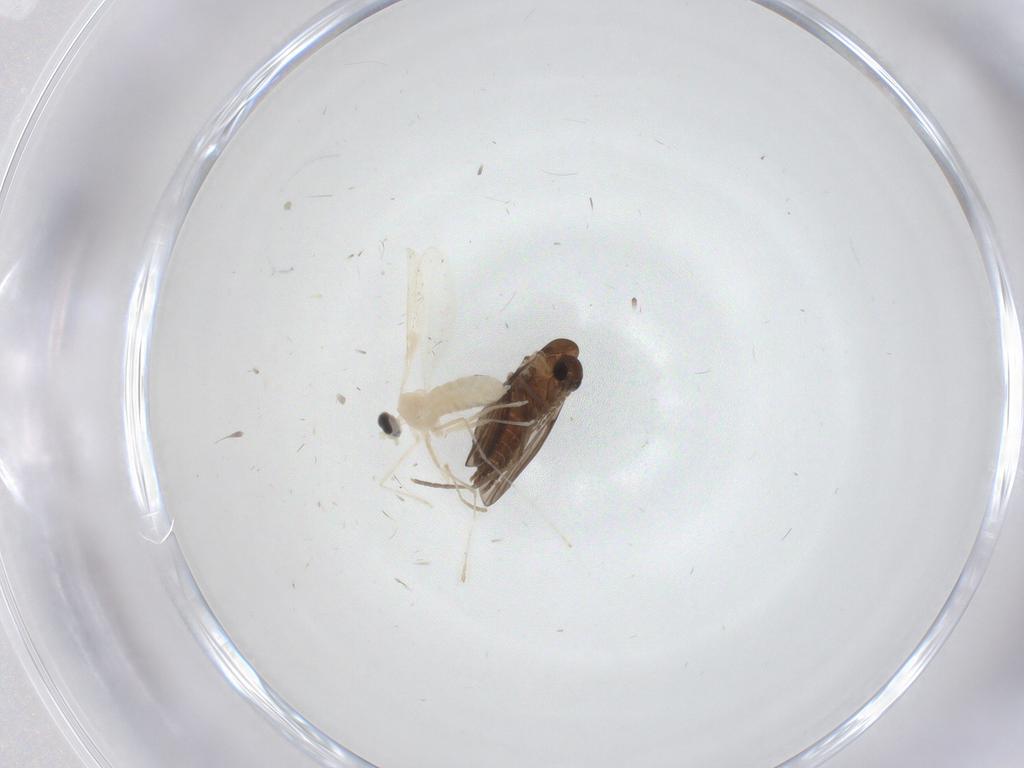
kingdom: Animalia
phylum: Arthropoda
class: Insecta
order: Diptera
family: Cecidomyiidae
